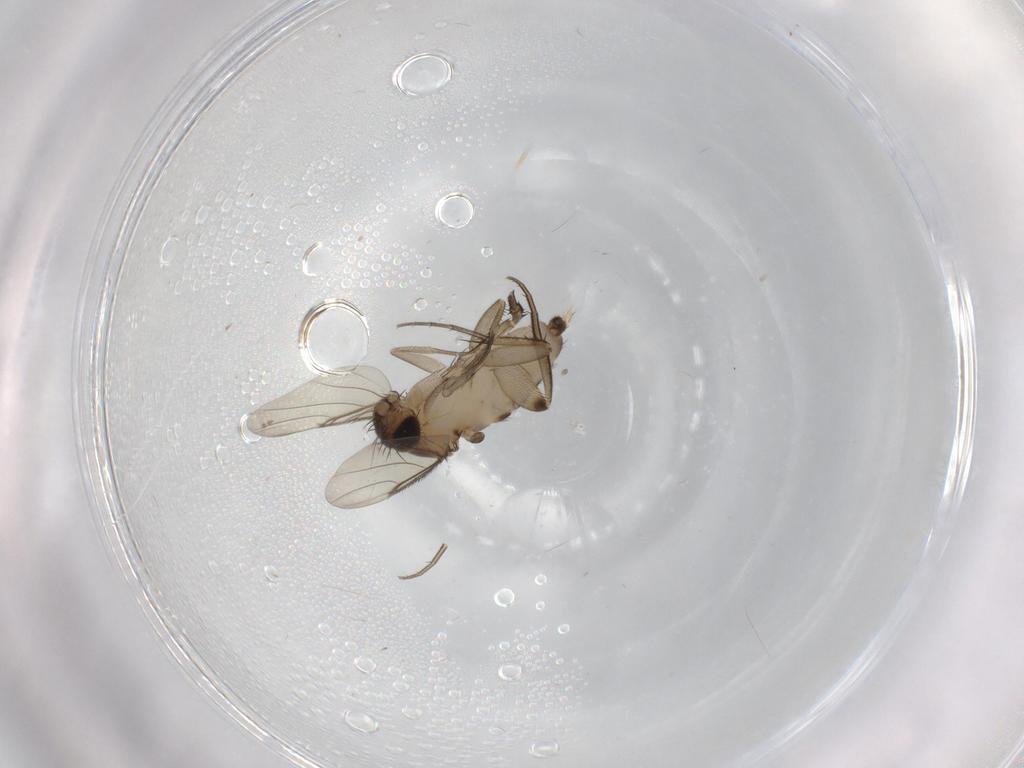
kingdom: Animalia
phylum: Arthropoda
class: Insecta
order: Diptera
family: Phoridae
